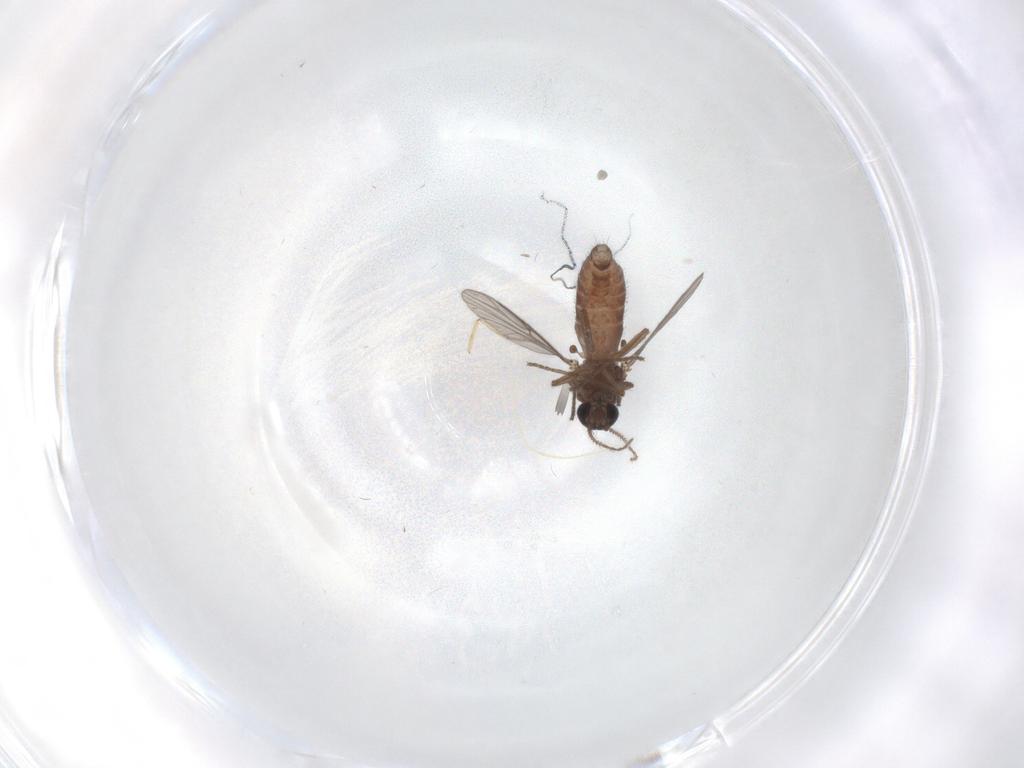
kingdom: Animalia
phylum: Arthropoda
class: Insecta
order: Diptera
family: Ceratopogonidae
